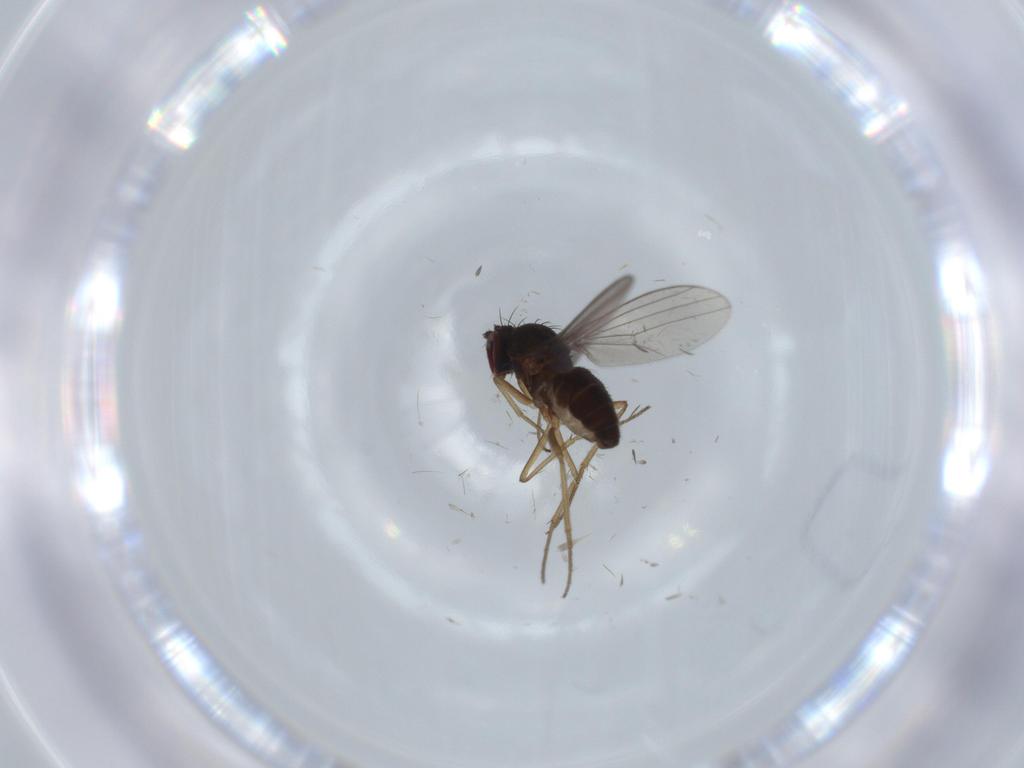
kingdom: Animalia
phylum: Arthropoda
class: Insecta
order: Diptera
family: Dolichopodidae
